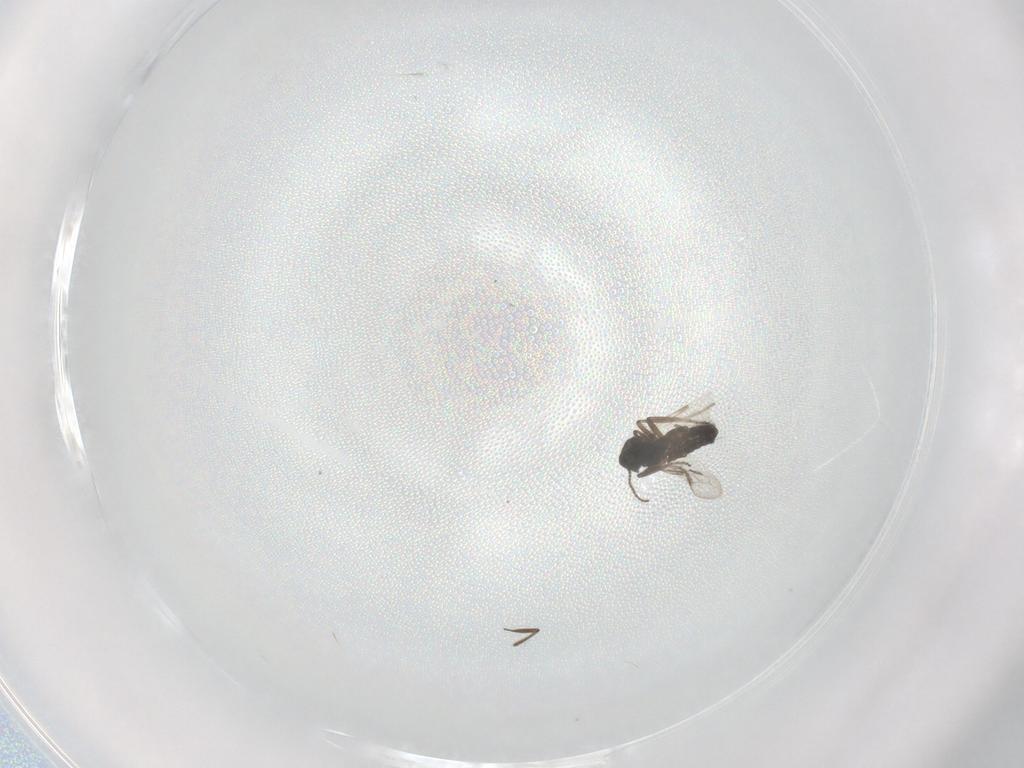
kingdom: Animalia
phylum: Arthropoda
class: Insecta
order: Diptera
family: Ceratopogonidae
